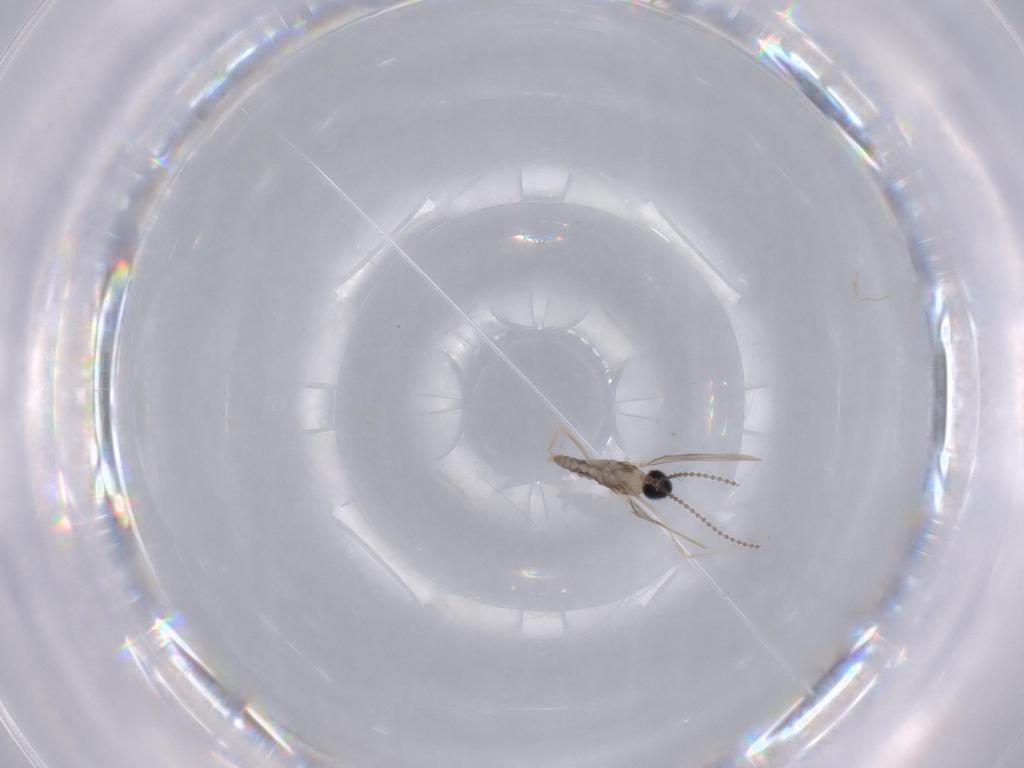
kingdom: Animalia
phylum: Arthropoda
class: Insecta
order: Diptera
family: Cecidomyiidae
